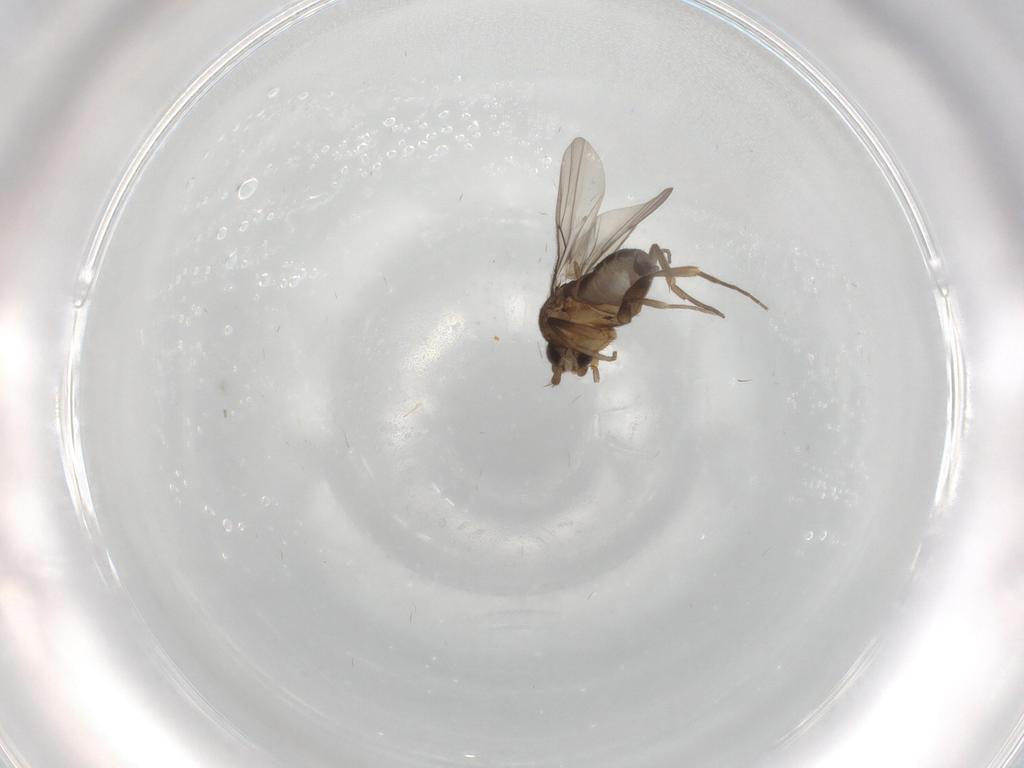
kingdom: Animalia
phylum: Arthropoda
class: Insecta
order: Diptera
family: Phoridae
